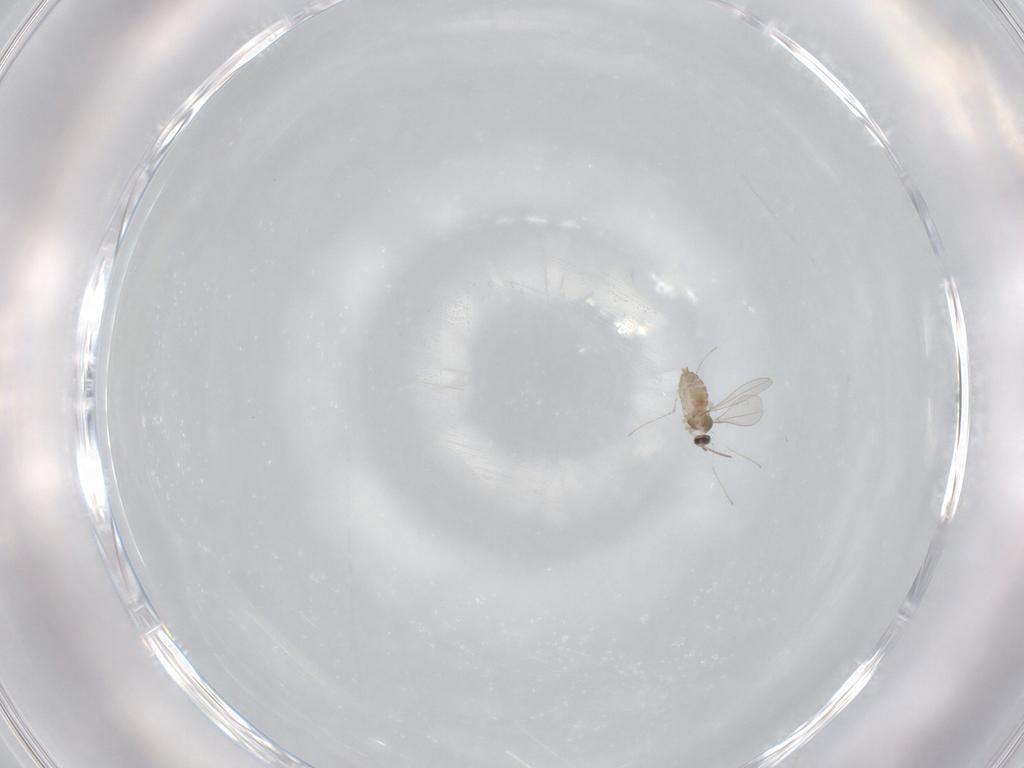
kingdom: Animalia
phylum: Arthropoda
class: Insecta
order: Diptera
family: Cecidomyiidae
